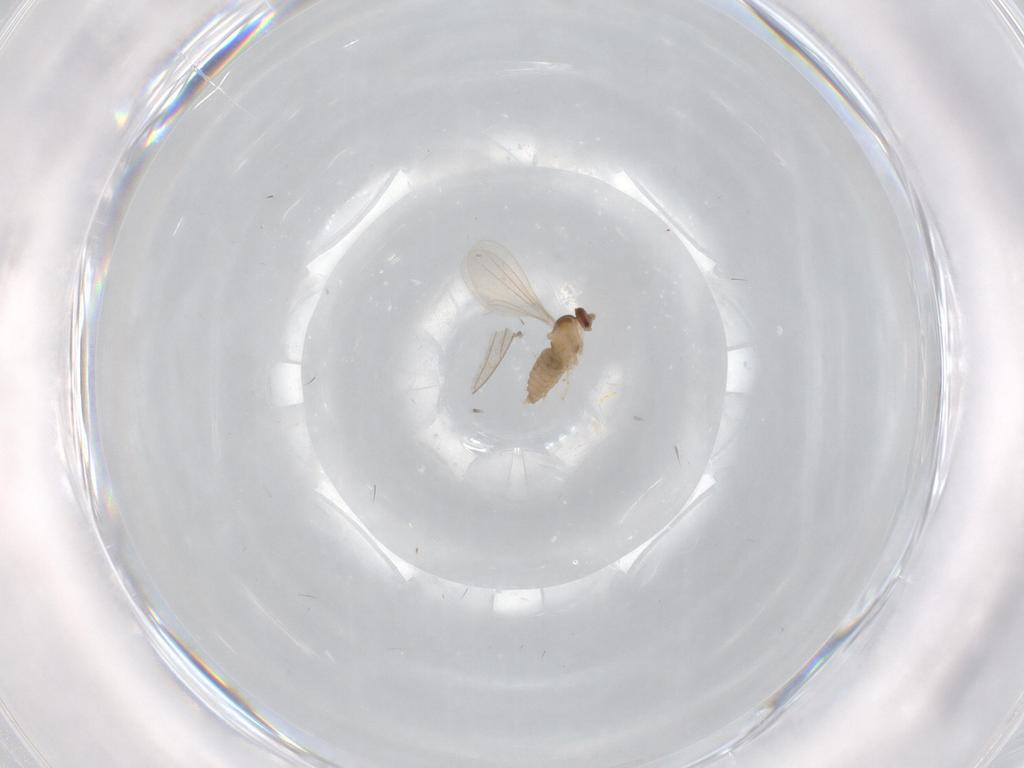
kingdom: Animalia
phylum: Arthropoda
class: Insecta
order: Diptera
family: Cecidomyiidae
